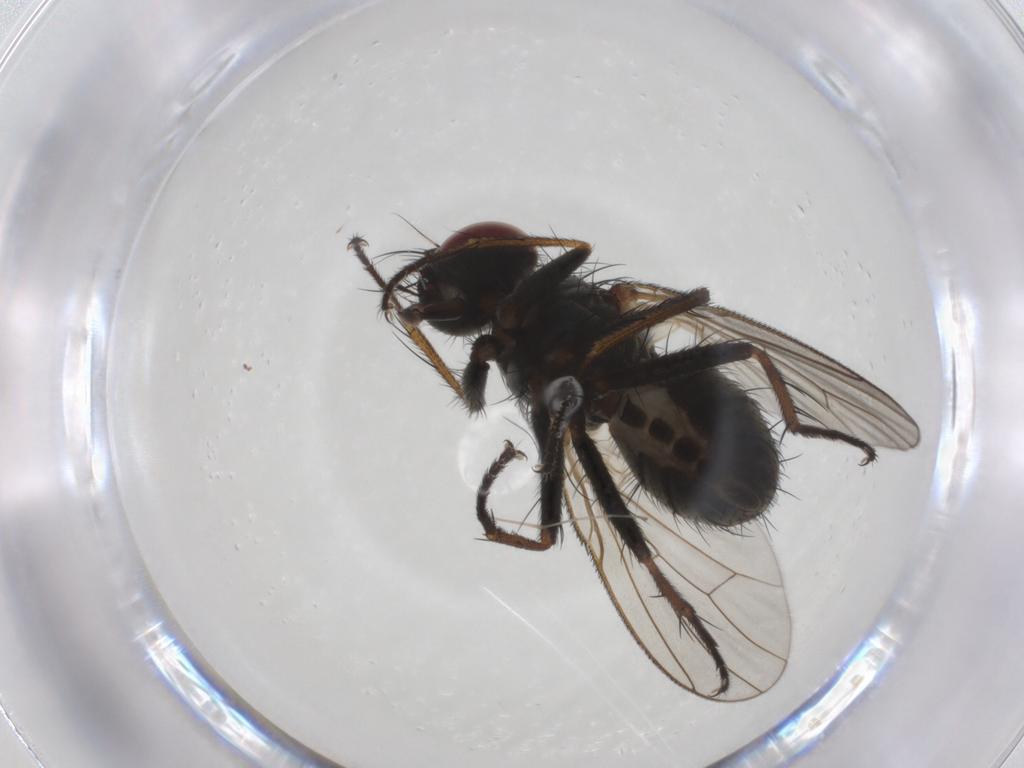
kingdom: Animalia
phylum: Arthropoda
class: Insecta
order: Diptera
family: Muscidae
